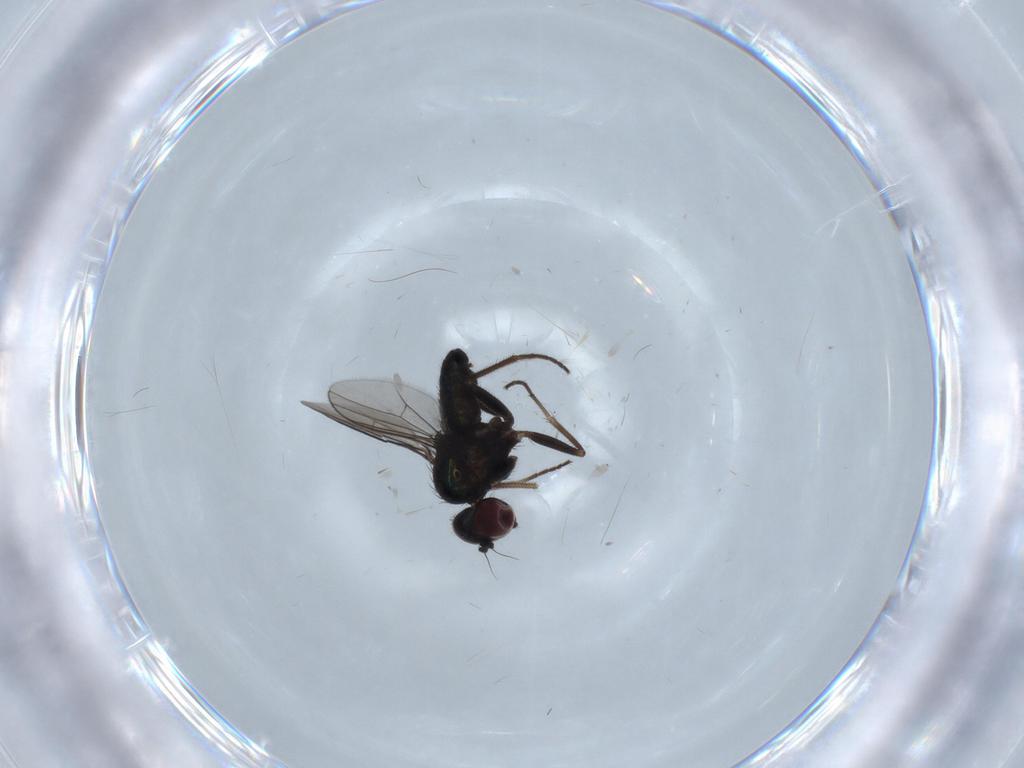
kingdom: Animalia
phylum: Arthropoda
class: Insecta
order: Diptera
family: Dolichopodidae
